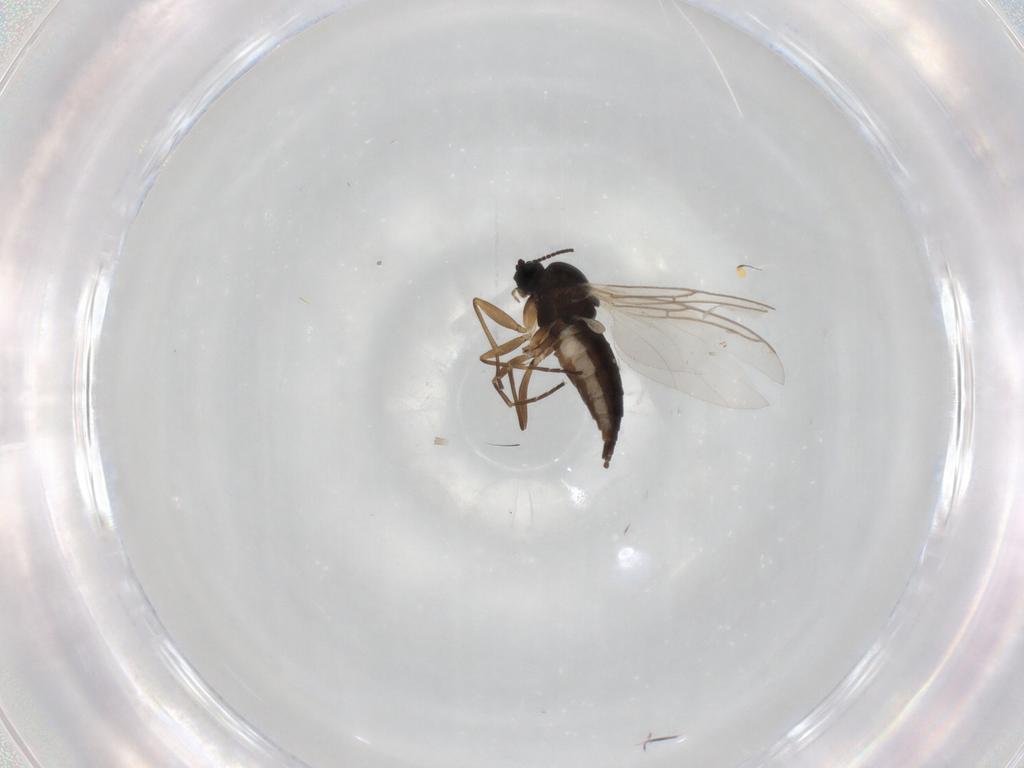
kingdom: Animalia
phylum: Arthropoda
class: Insecta
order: Diptera
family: Sciaridae
